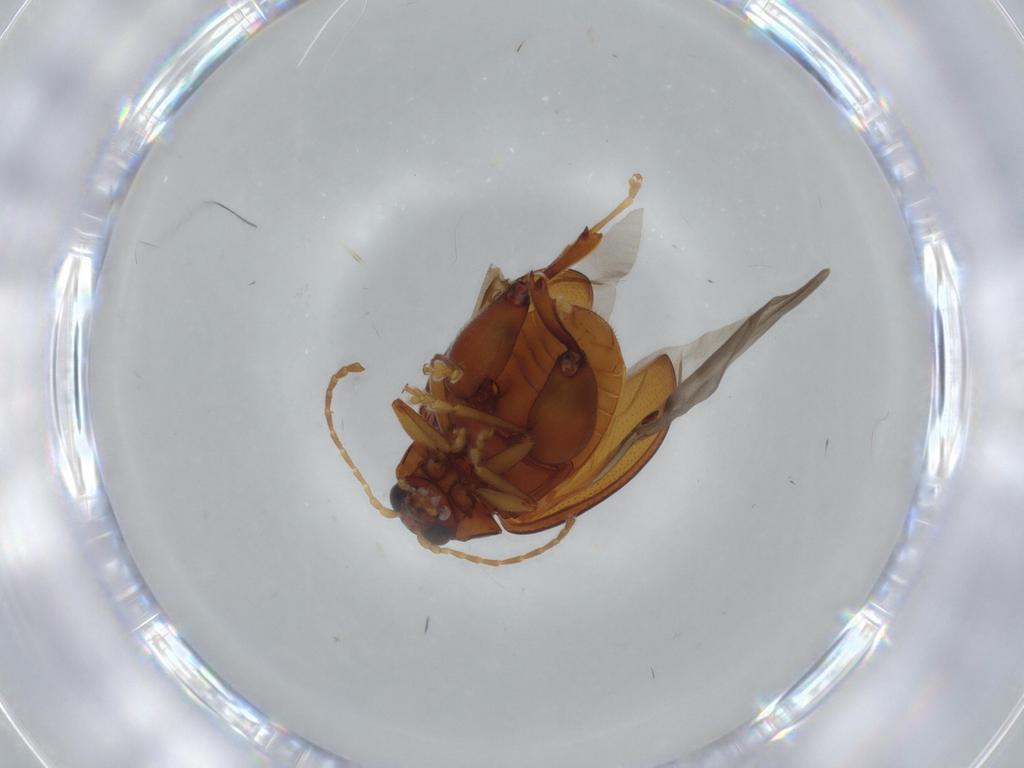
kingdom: Animalia
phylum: Arthropoda
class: Insecta
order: Coleoptera
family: Chrysomelidae
